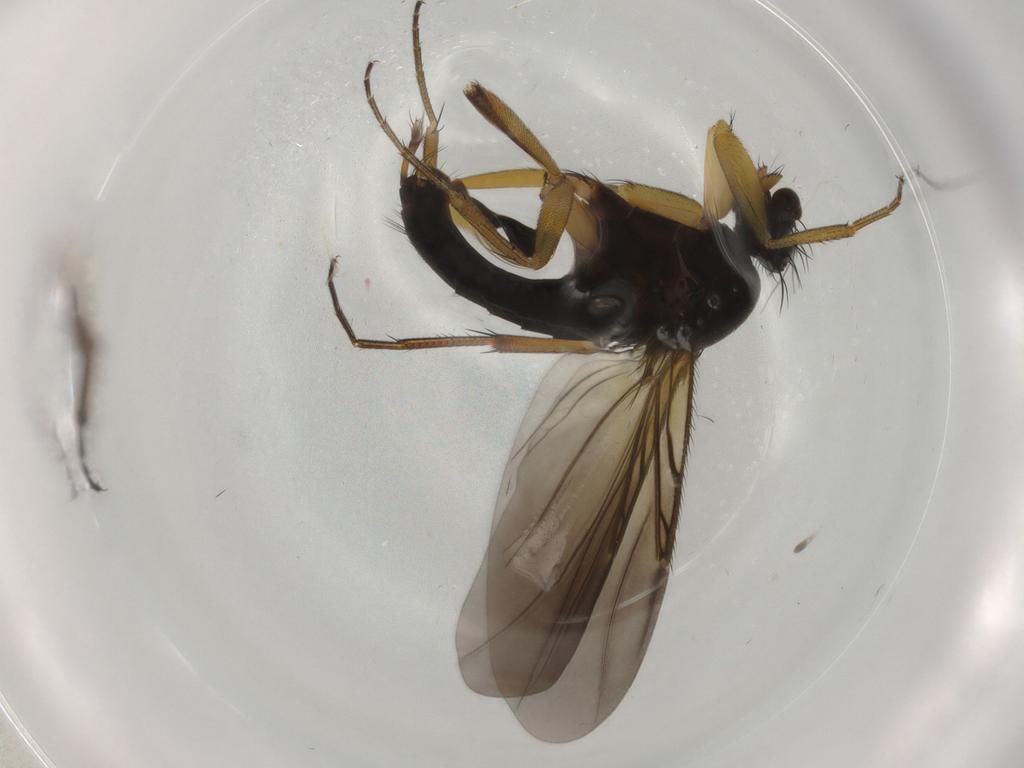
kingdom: Animalia
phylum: Arthropoda
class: Insecta
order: Diptera
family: Phoridae
